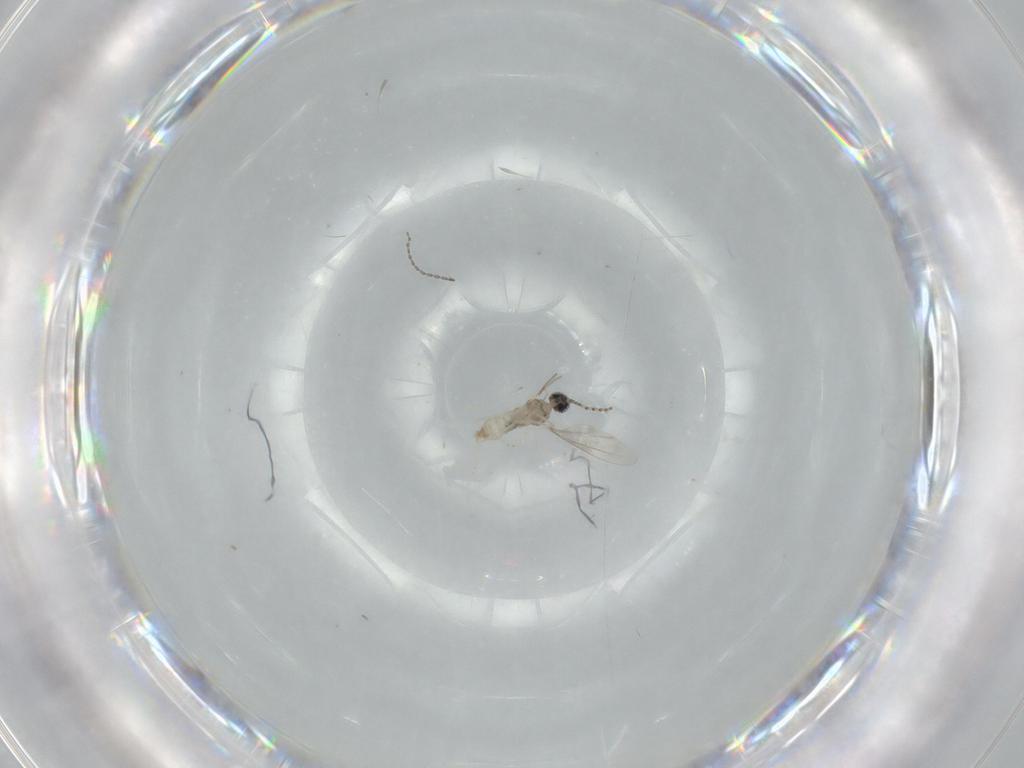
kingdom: Animalia
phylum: Arthropoda
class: Insecta
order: Diptera
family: Cecidomyiidae
